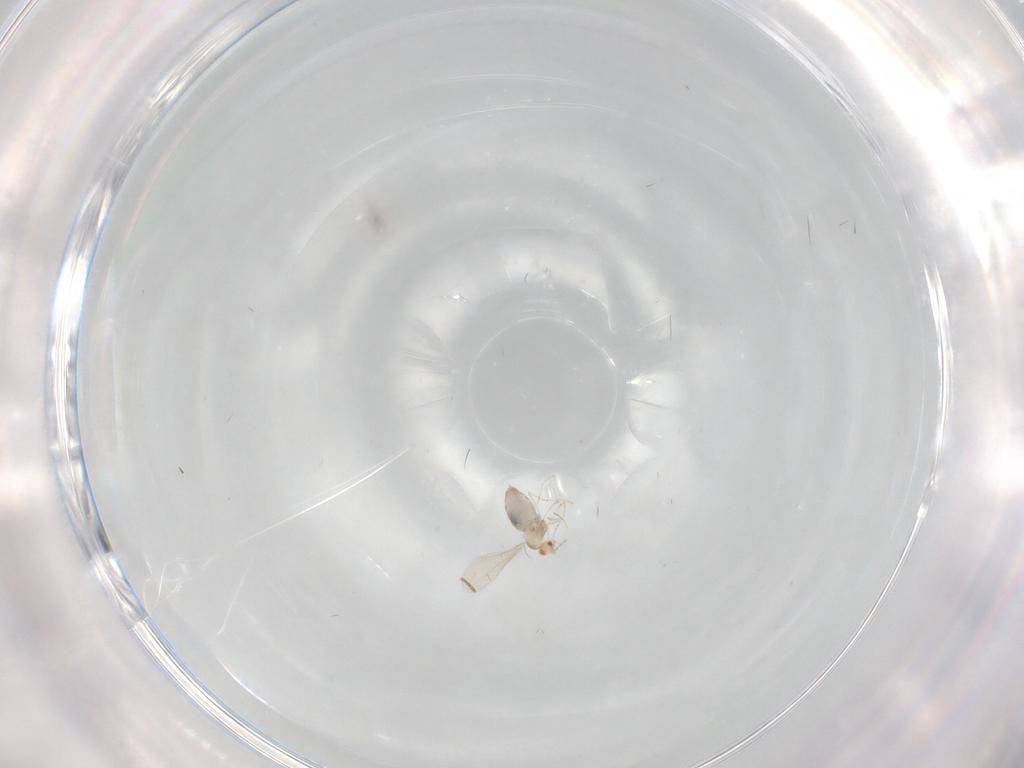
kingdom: Animalia
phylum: Arthropoda
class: Insecta
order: Diptera
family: Phoridae
